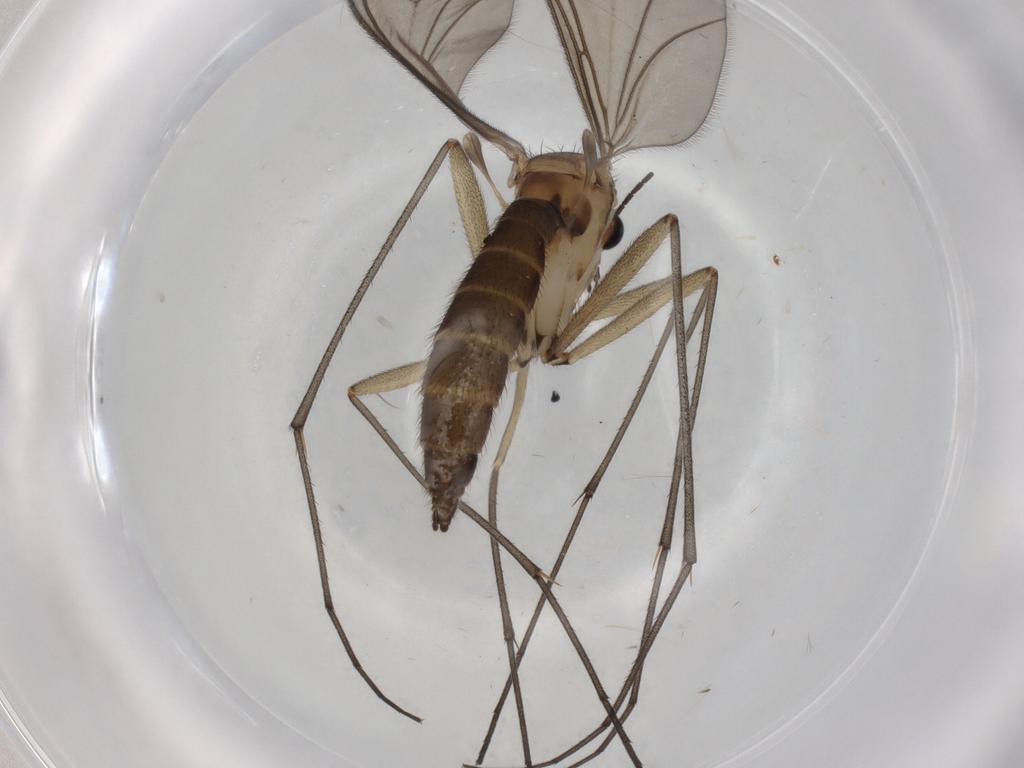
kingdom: Animalia
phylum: Arthropoda
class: Insecta
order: Diptera
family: Sciaridae
